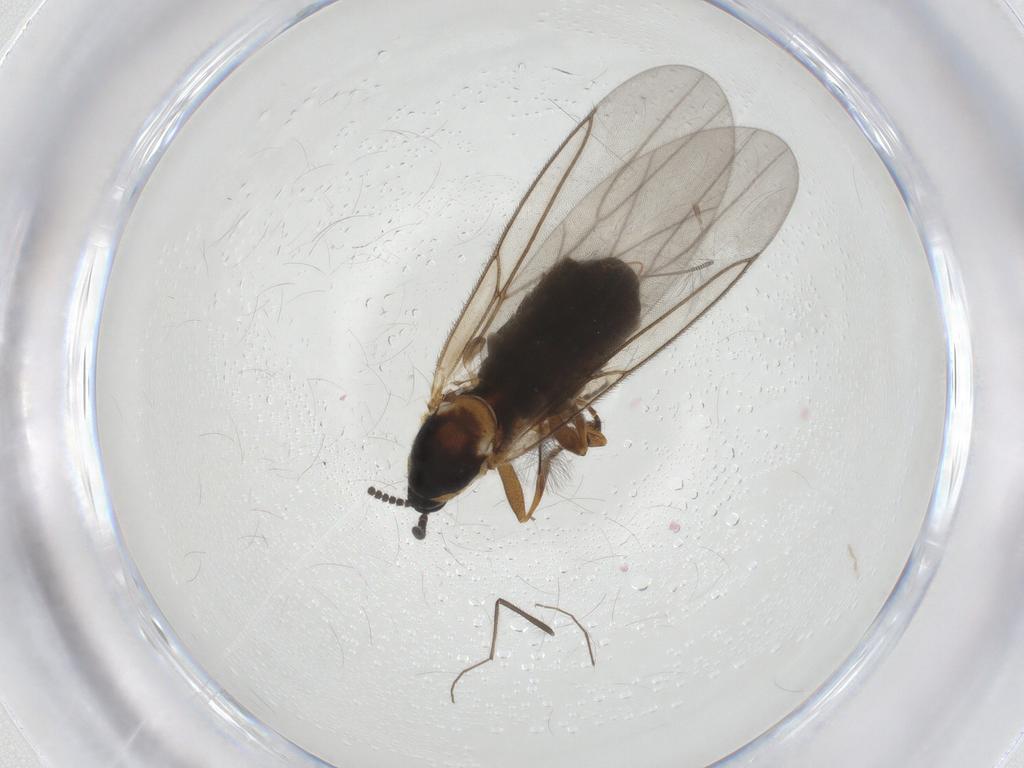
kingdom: Animalia
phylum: Arthropoda
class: Insecta
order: Diptera
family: Scatopsidae
